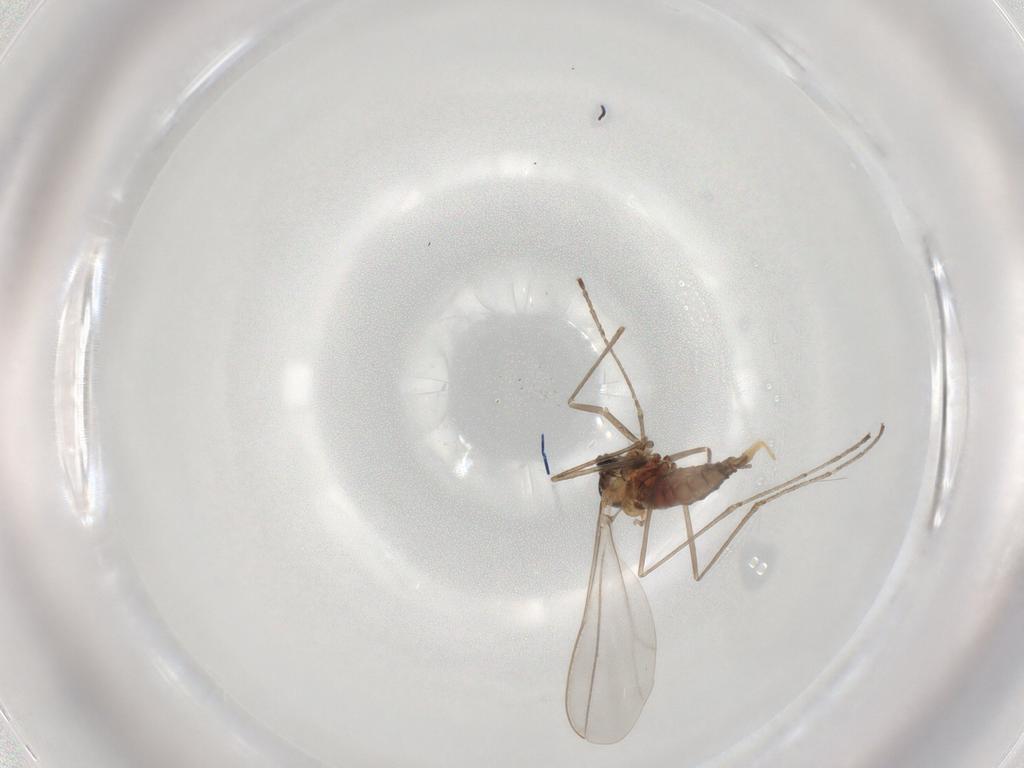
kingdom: Animalia
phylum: Arthropoda
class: Insecta
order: Diptera
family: Cecidomyiidae
